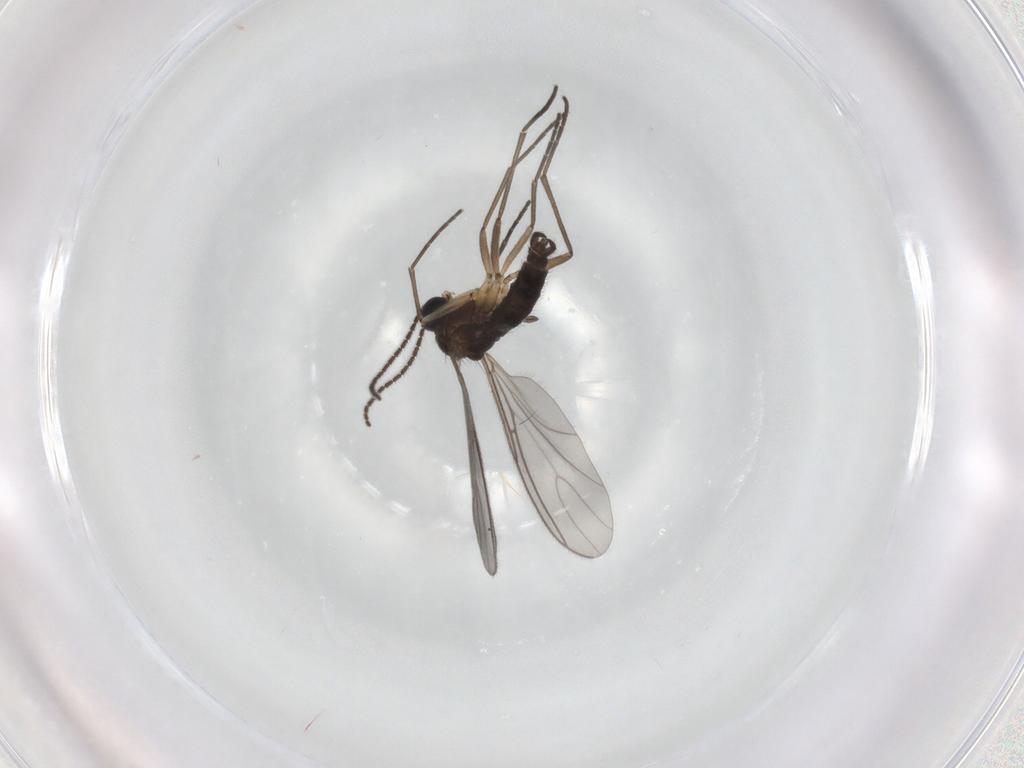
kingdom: Animalia
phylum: Arthropoda
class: Insecta
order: Diptera
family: Sciaridae
